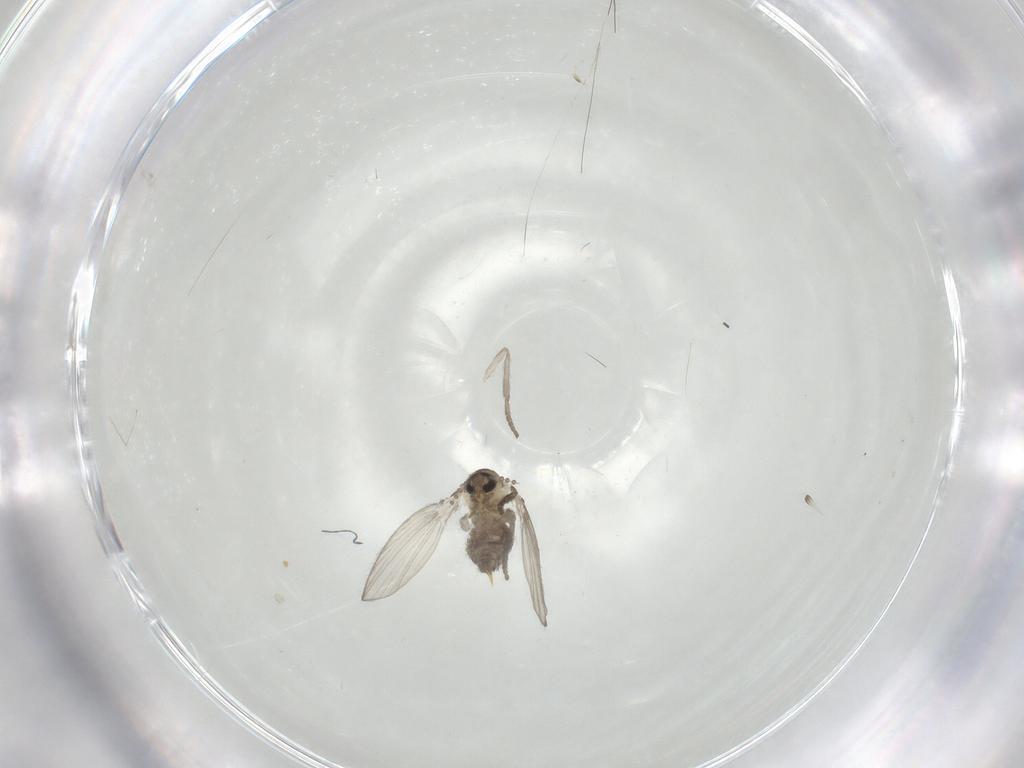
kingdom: Animalia
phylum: Arthropoda
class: Insecta
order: Diptera
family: Psychodidae
